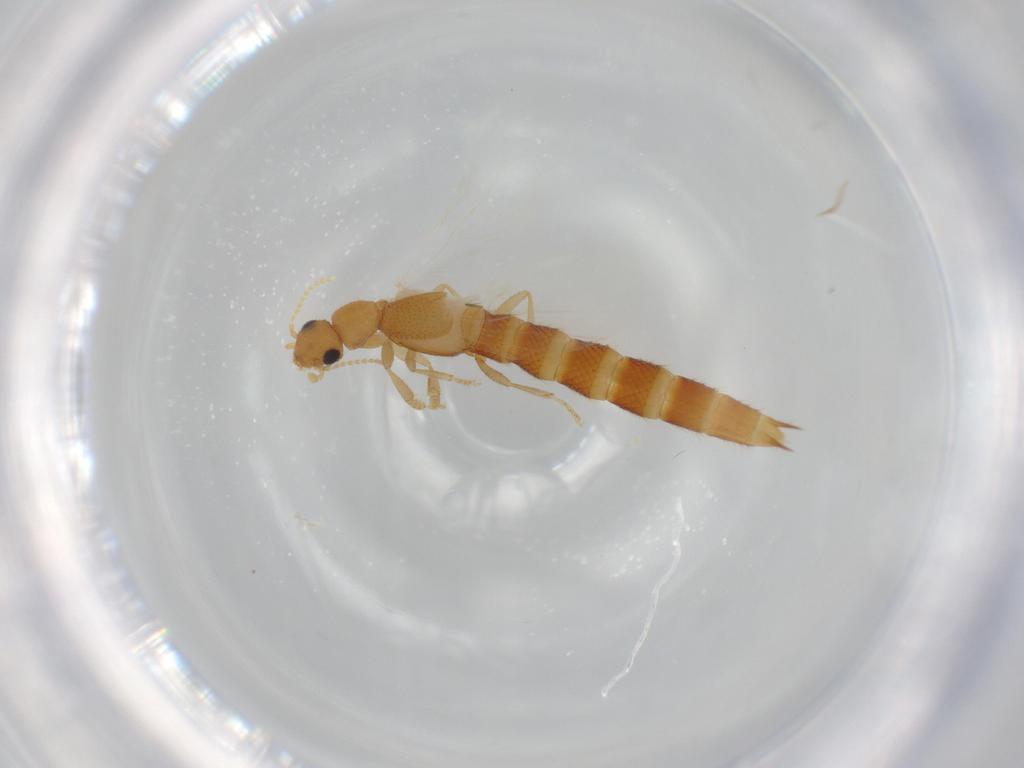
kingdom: Animalia
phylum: Arthropoda
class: Insecta
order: Coleoptera
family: Staphylinidae
